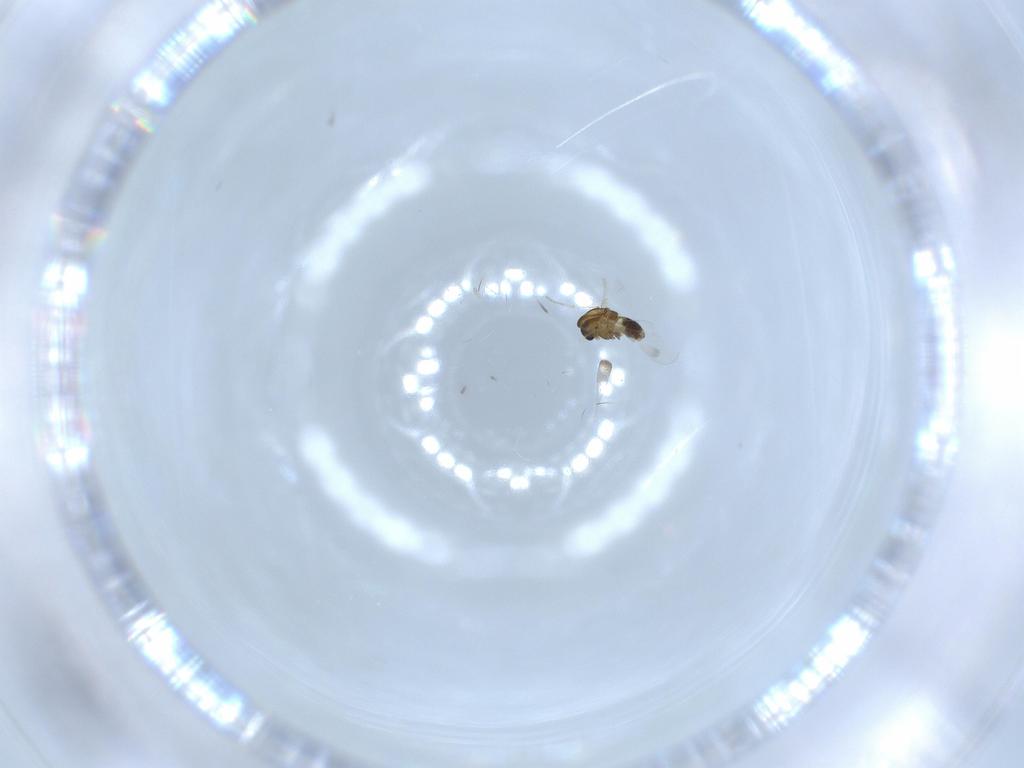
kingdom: Animalia
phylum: Arthropoda
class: Insecta
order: Diptera
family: Chironomidae
